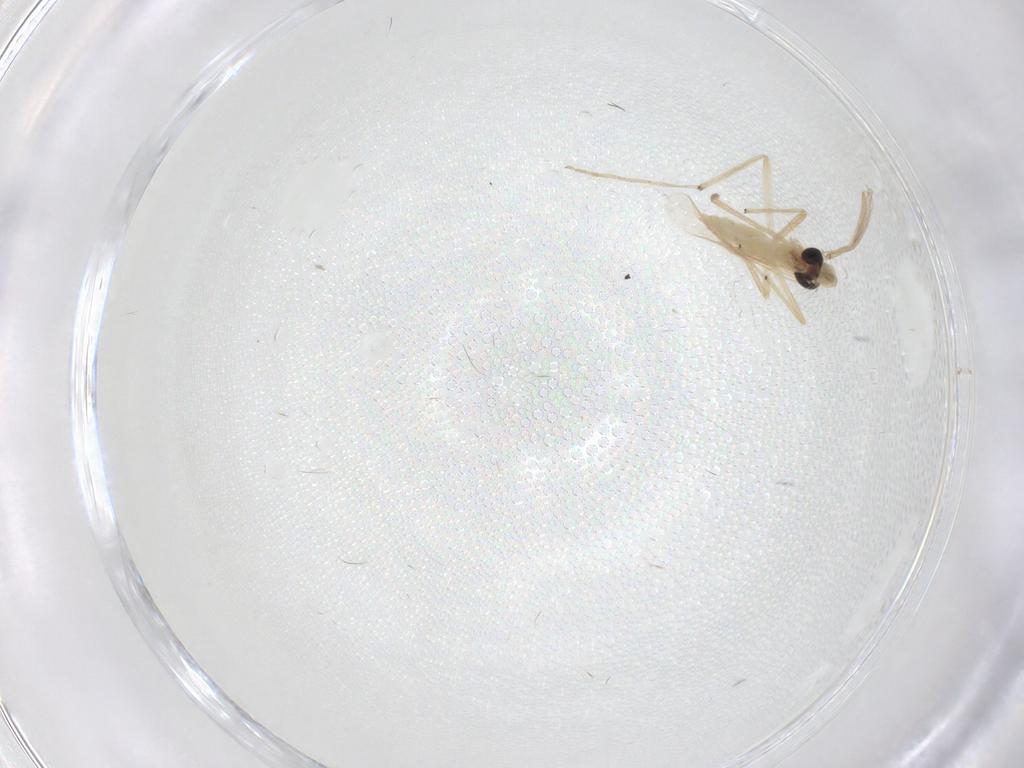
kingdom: Animalia
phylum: Arthropoda
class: Insecta
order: Diptera
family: Chironomidae
